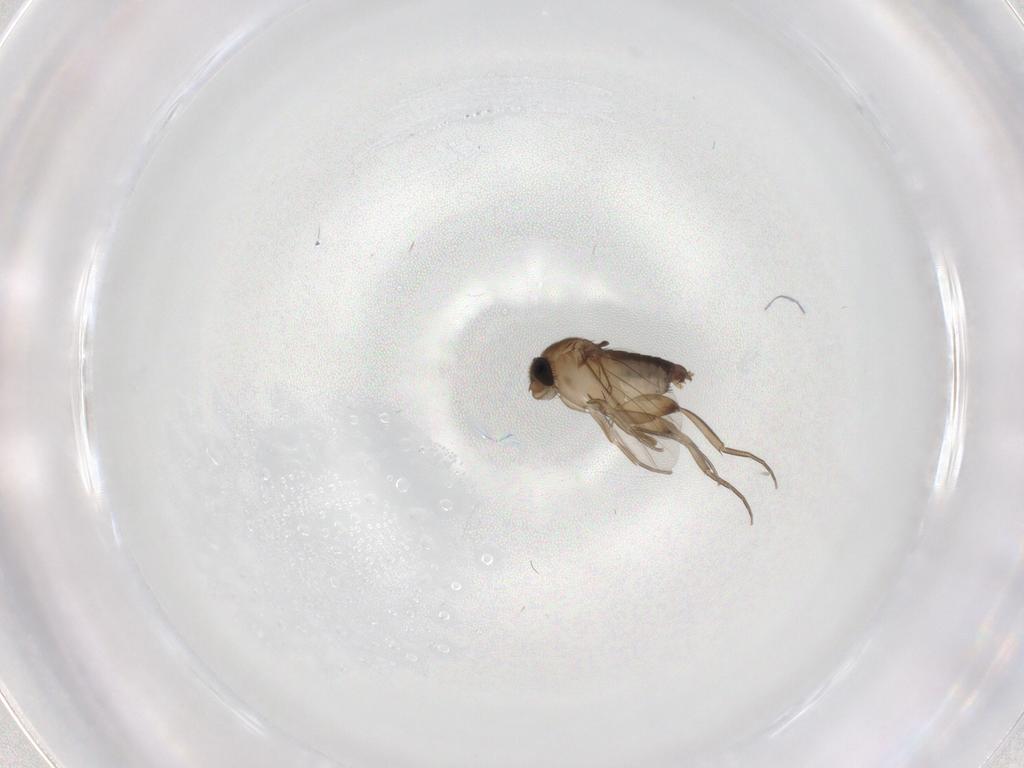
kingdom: Animalia
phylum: Arthropoda
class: Insecta
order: Diptera
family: Phoridae
